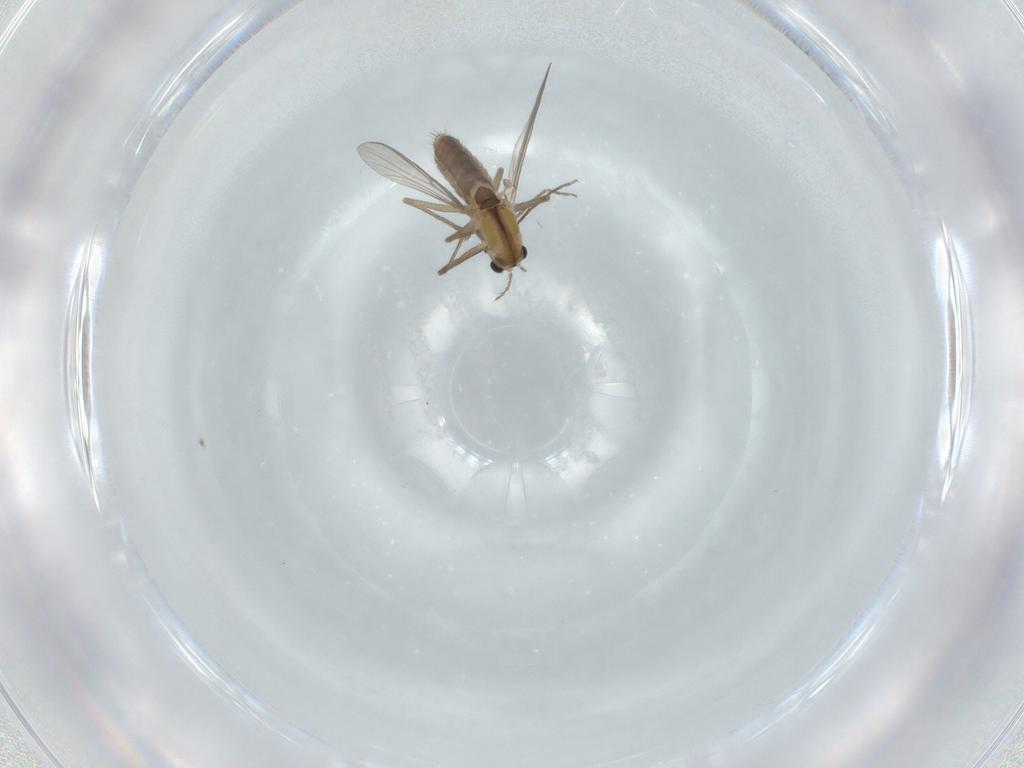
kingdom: Animalia
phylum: Arthropoda
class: Insecta
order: Diptera
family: Chironomidae
